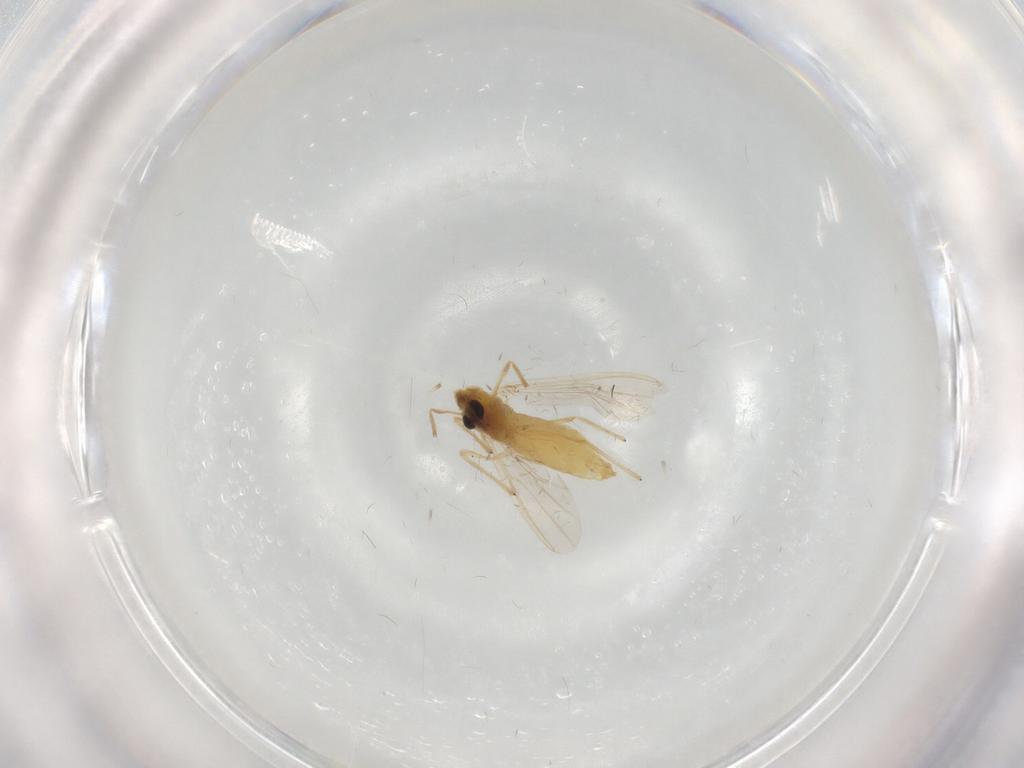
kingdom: Animalia
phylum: Arthropoda
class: Insecta
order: Diptera
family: Chironomidae
